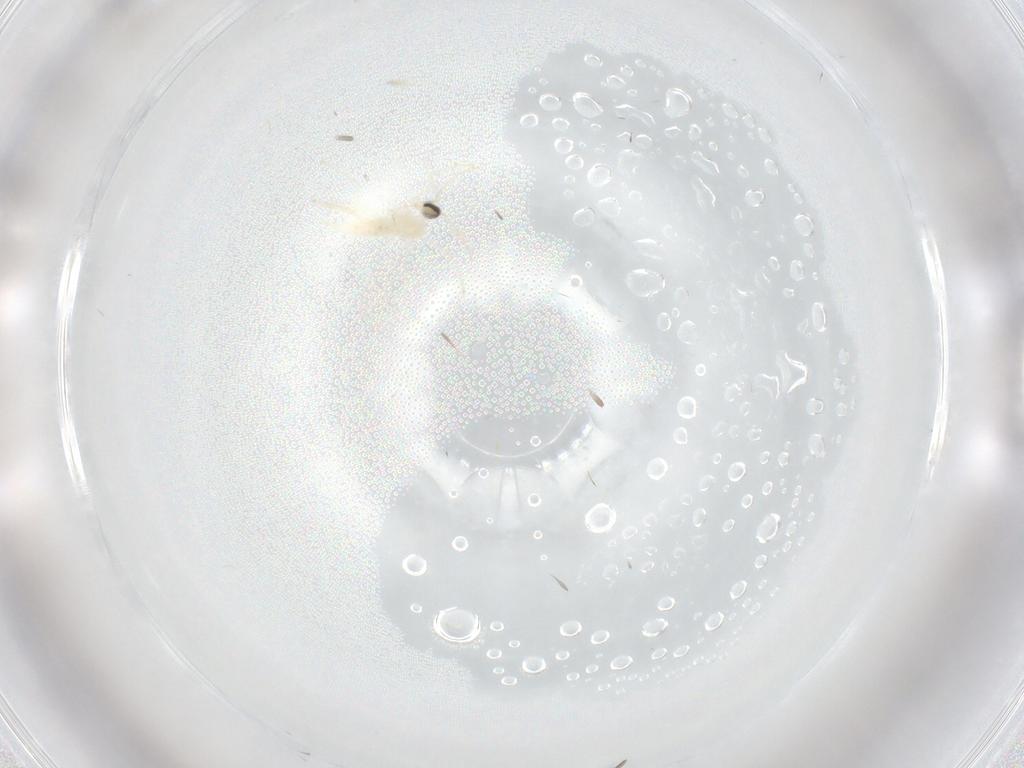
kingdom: Animalia
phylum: Arthropoda
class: Insecta
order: Diptera
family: Cecidomyiidae
